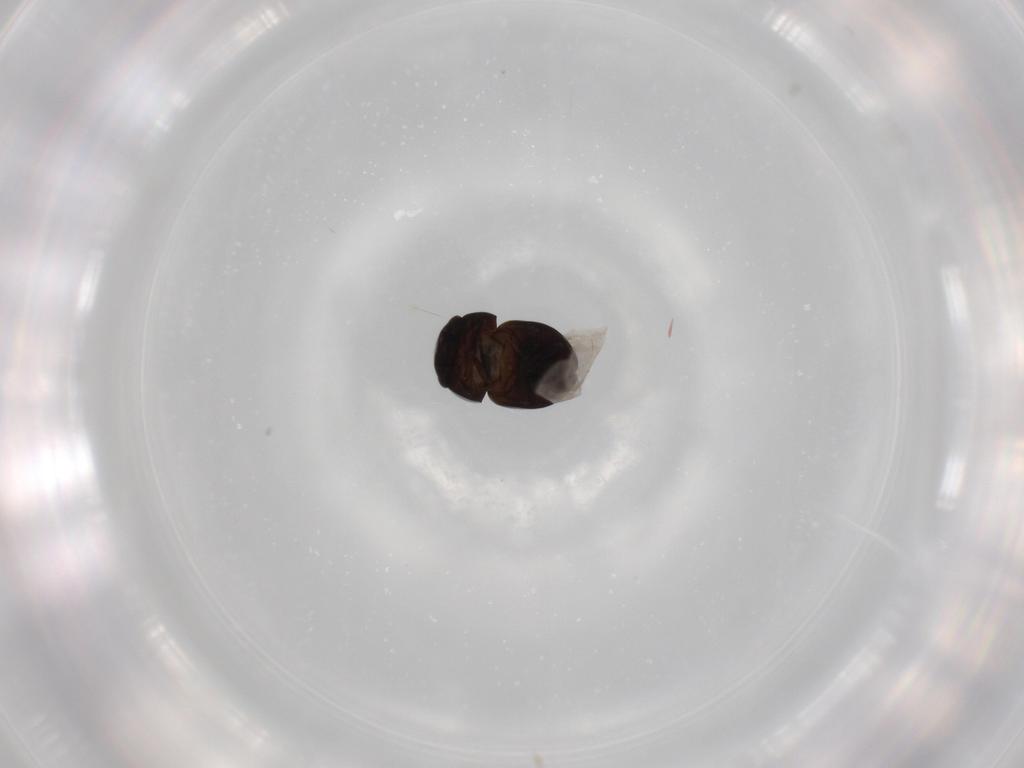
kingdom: Animalia
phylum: Arthropoda
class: Insecta
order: Coleoptera
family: Cybocephalidae
